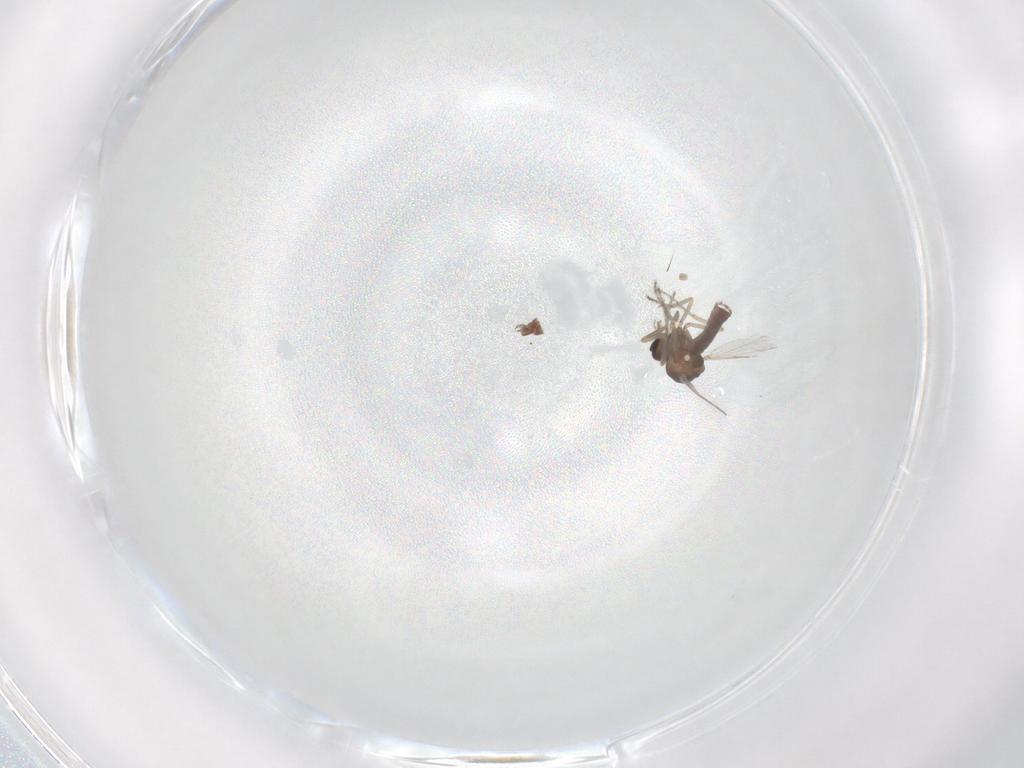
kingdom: Animalia
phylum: Arthropoda
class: Insecta
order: Diptera
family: Ceratopogonidae
